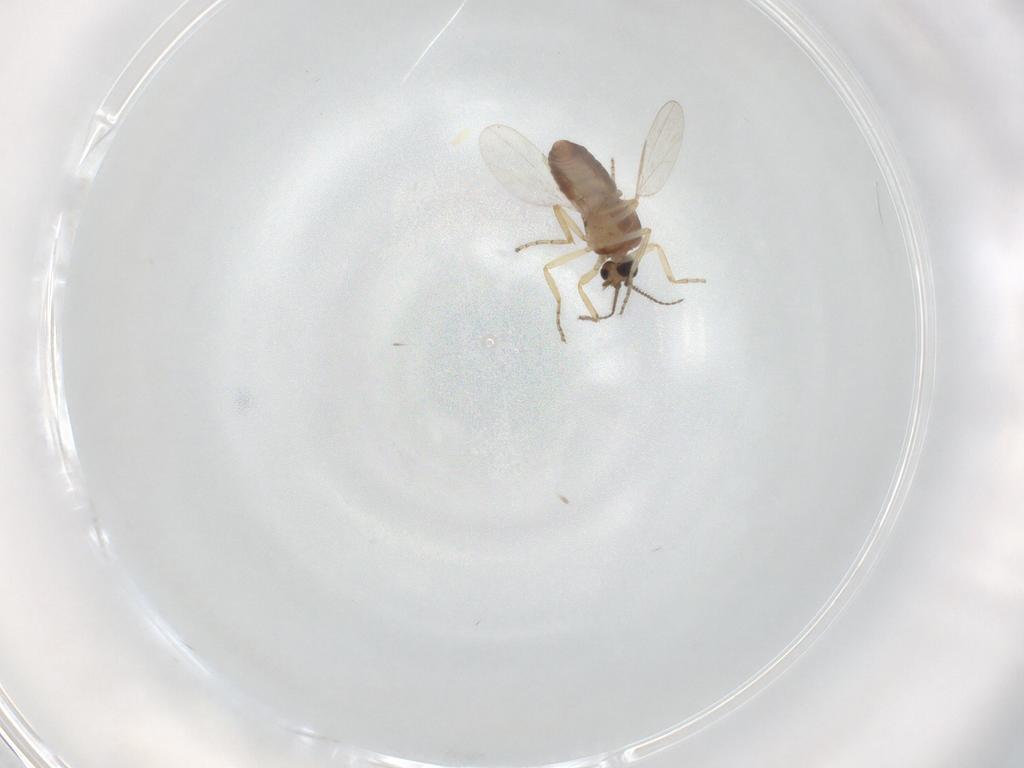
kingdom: Animalia
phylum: Arthropoda
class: Insecta
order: Diptera
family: Ceratopogonidae
